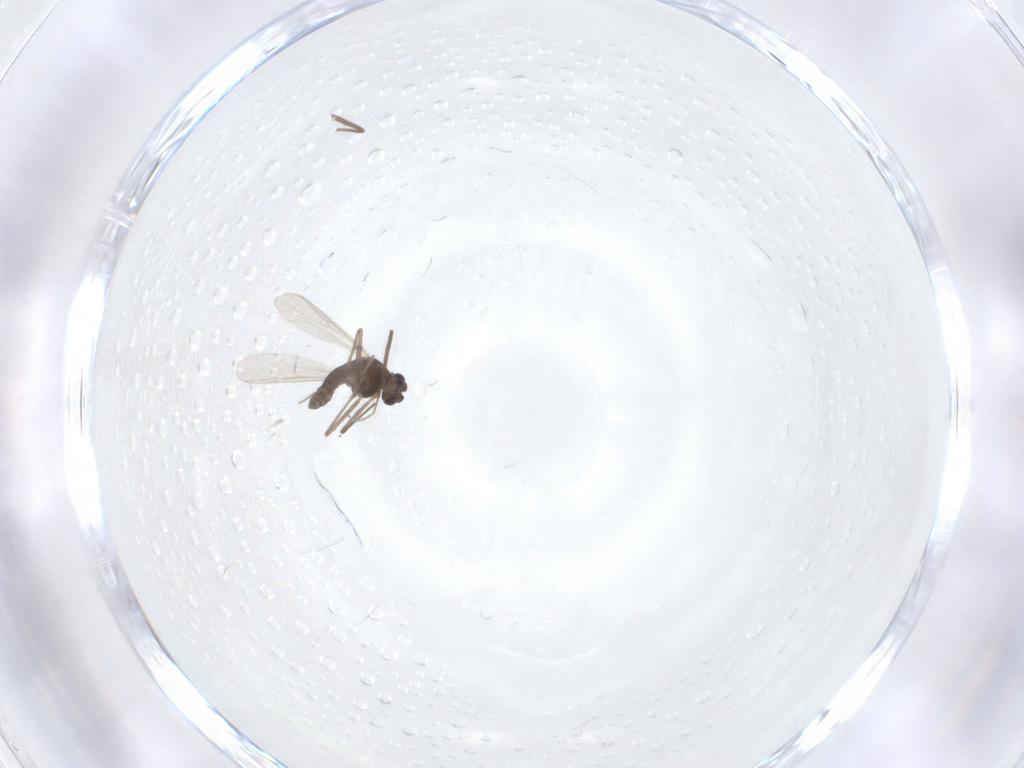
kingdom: Animalia
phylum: Arthropoda
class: Insecta
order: Diptera
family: Chironomidae
